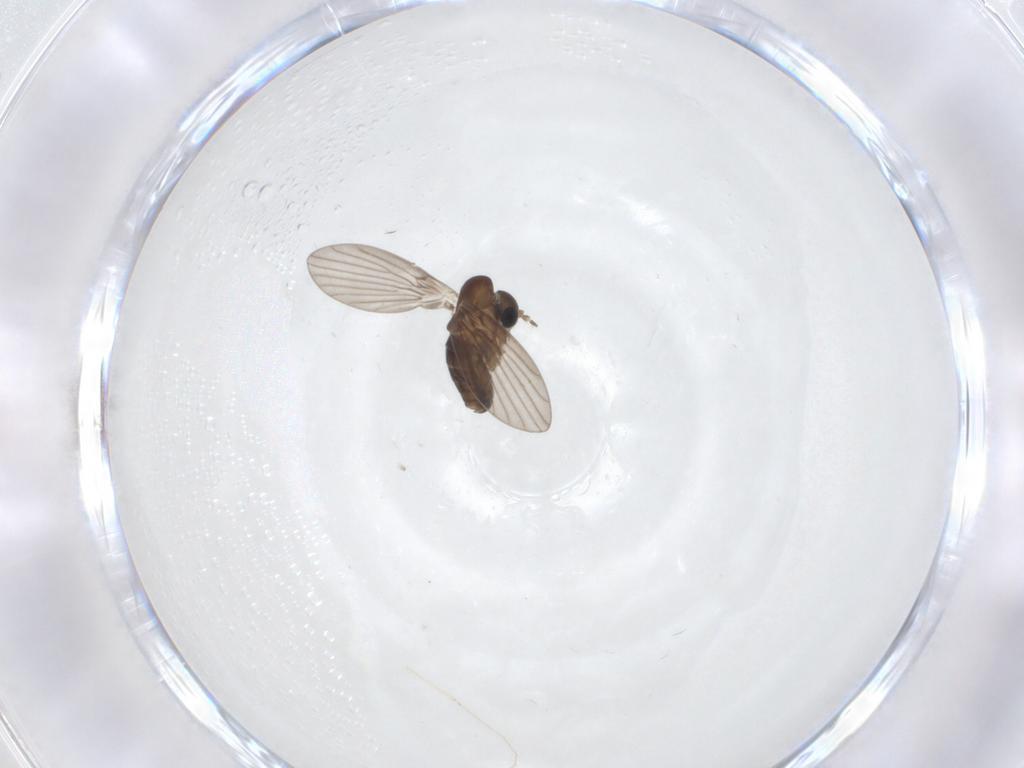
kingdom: Animalia
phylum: Arthropoda
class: Insecta
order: Diptera
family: Psychodidae
